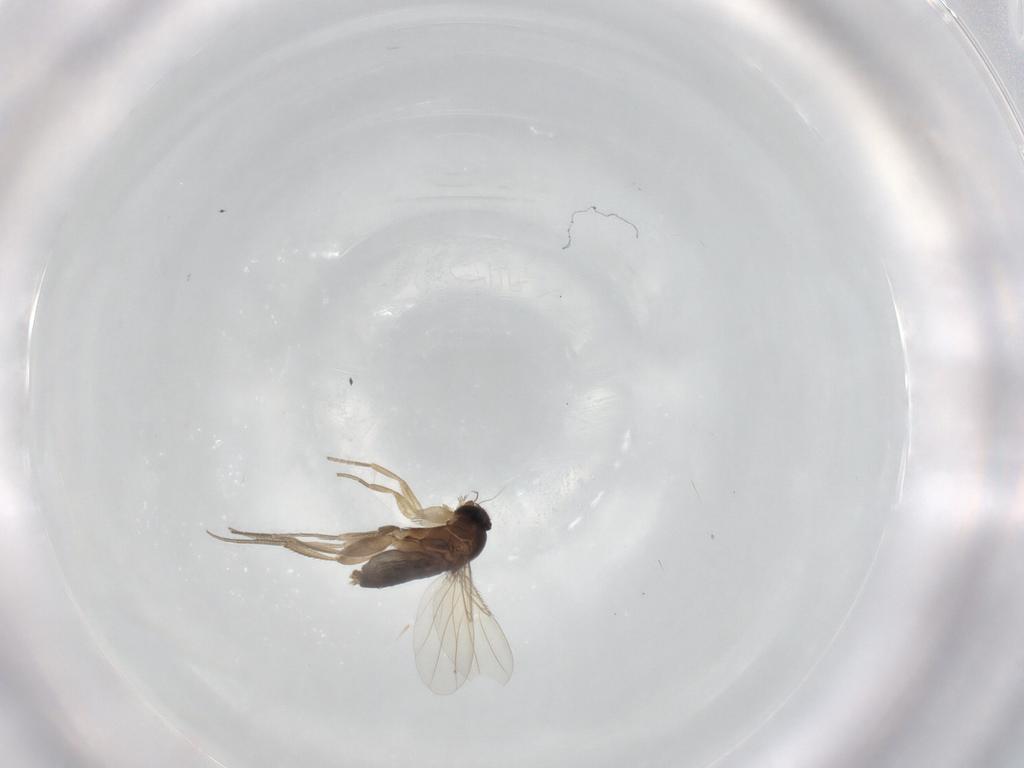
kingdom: Animalia
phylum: Arthropoda
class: Insecta
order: Diptera
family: Phoridae
